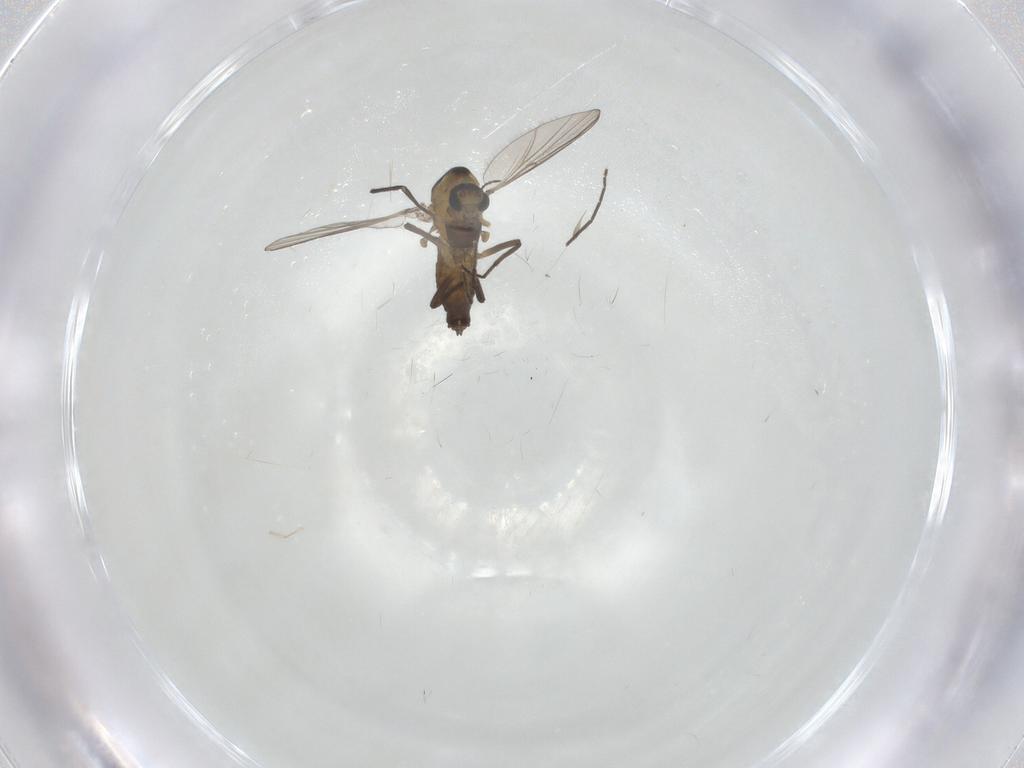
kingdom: Animalia
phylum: Arthropoda
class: Insecta
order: Diptera
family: Chironomidae
